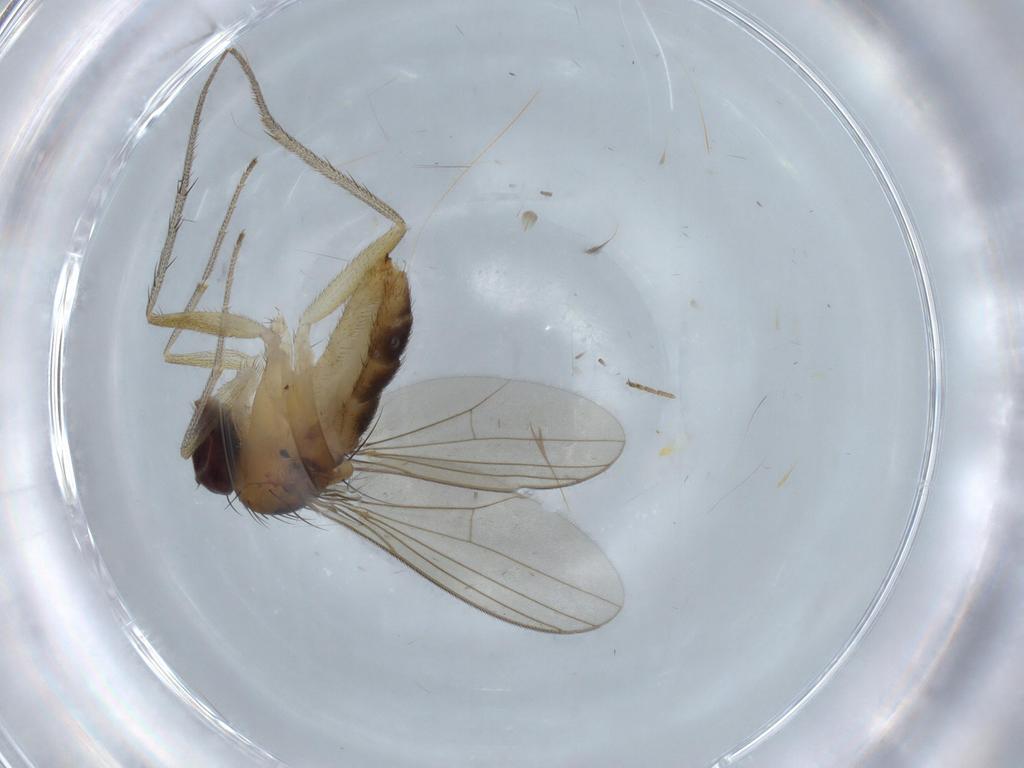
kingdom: Animalia
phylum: Arthropoda
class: Insecta
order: Diptera
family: Dolichopodidae
